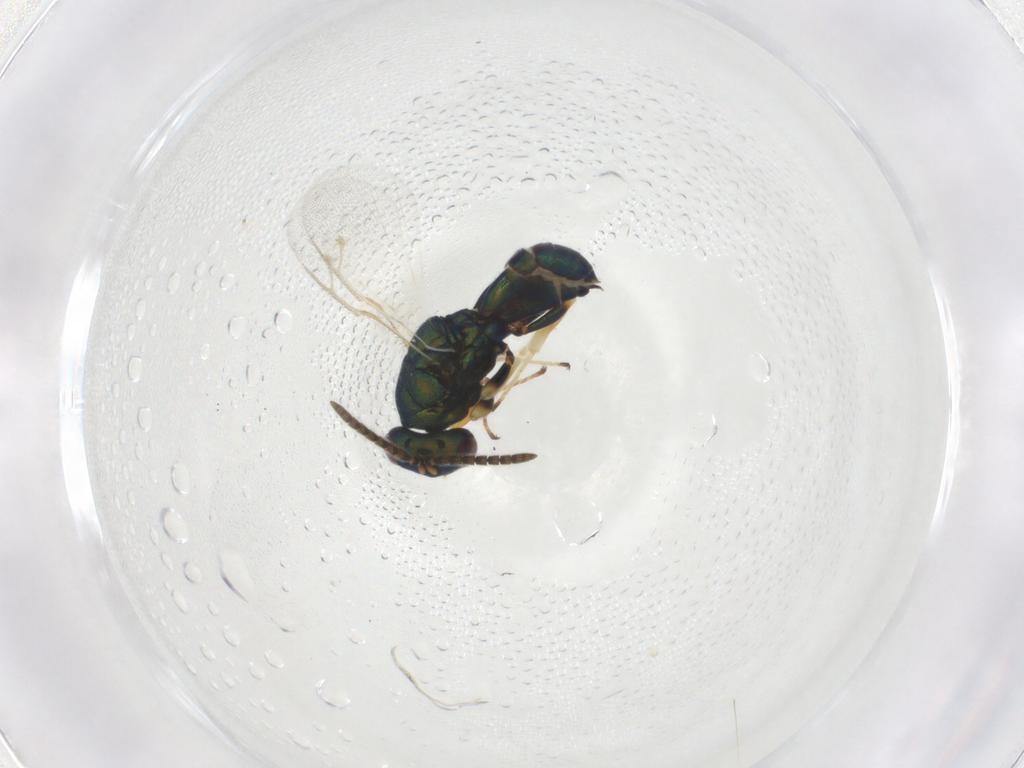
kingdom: Animalia
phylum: Arthropoda
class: Insecta
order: Hymenoptera
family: Pteromalidae
